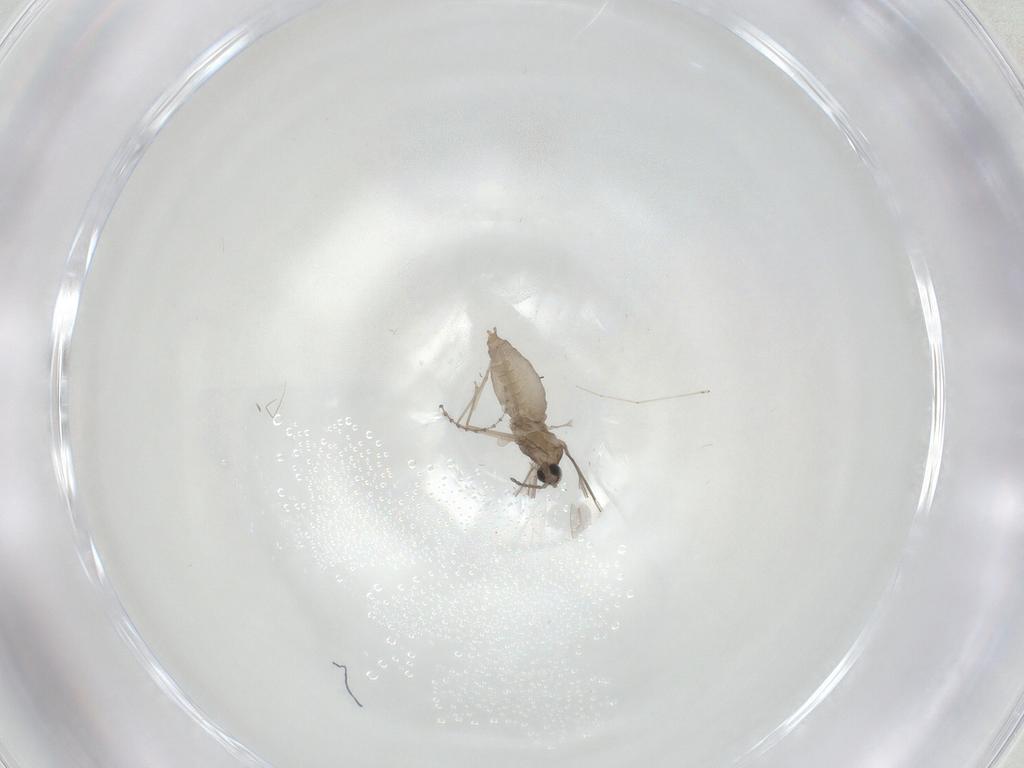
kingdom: Animalia
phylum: Arthropoda
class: Insecta
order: Diptera
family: Cecidomyiidae
